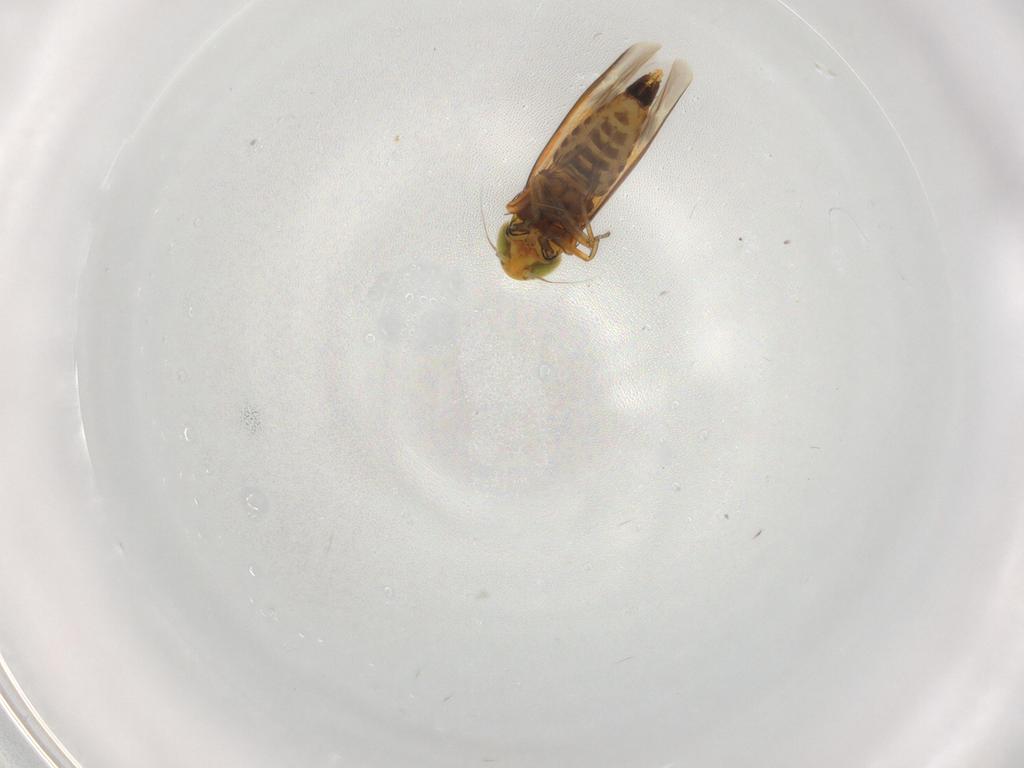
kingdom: Animalia
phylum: Arthropoda
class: Insecta
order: Hemiptera
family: Cicadellidae
